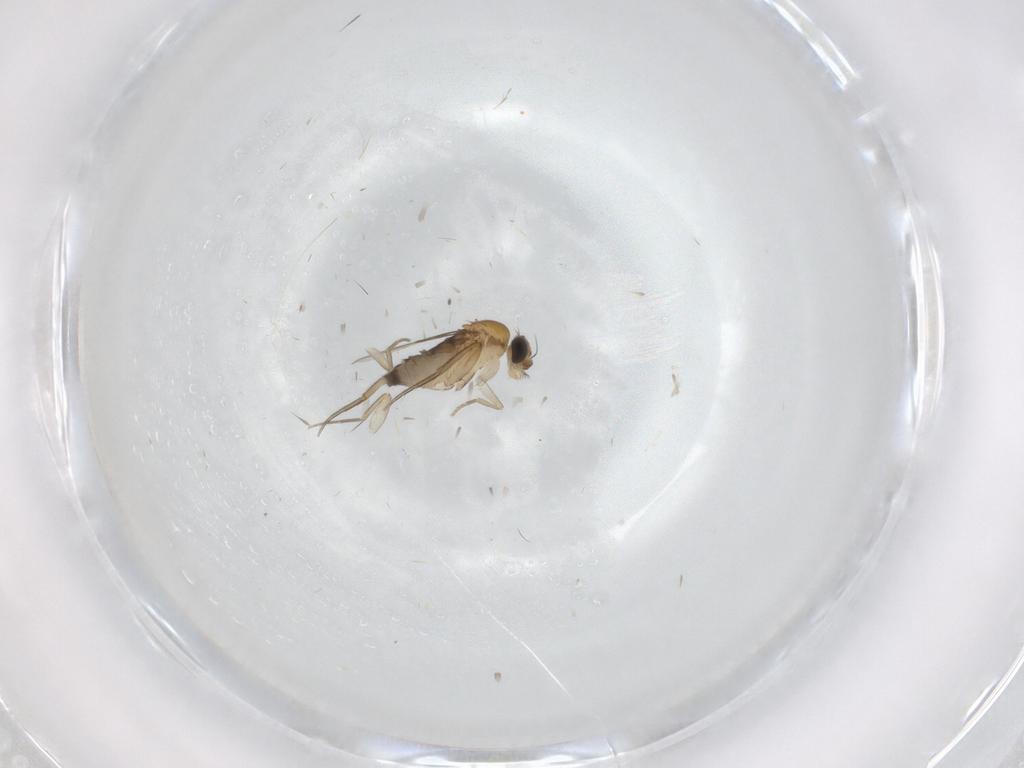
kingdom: Animalia
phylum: Arthropoda
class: Insecta
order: Diptera
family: Phoridae
